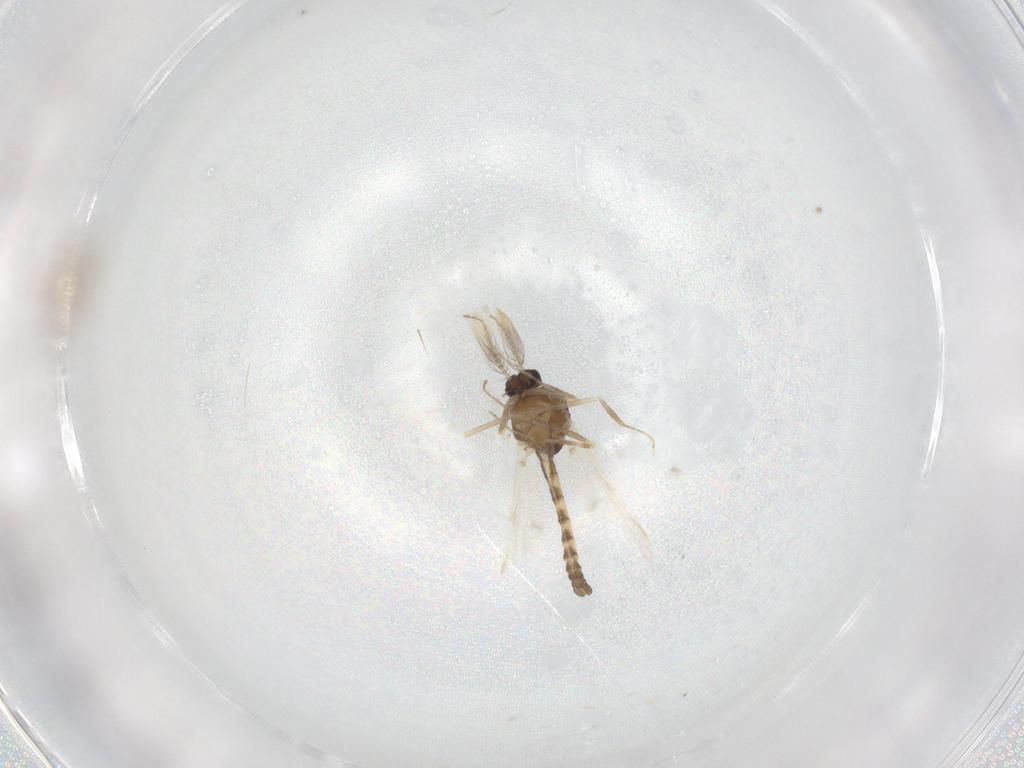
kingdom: Animalia
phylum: Arthropoda
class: Insecta
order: Diptera
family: Ceratopogonidae
